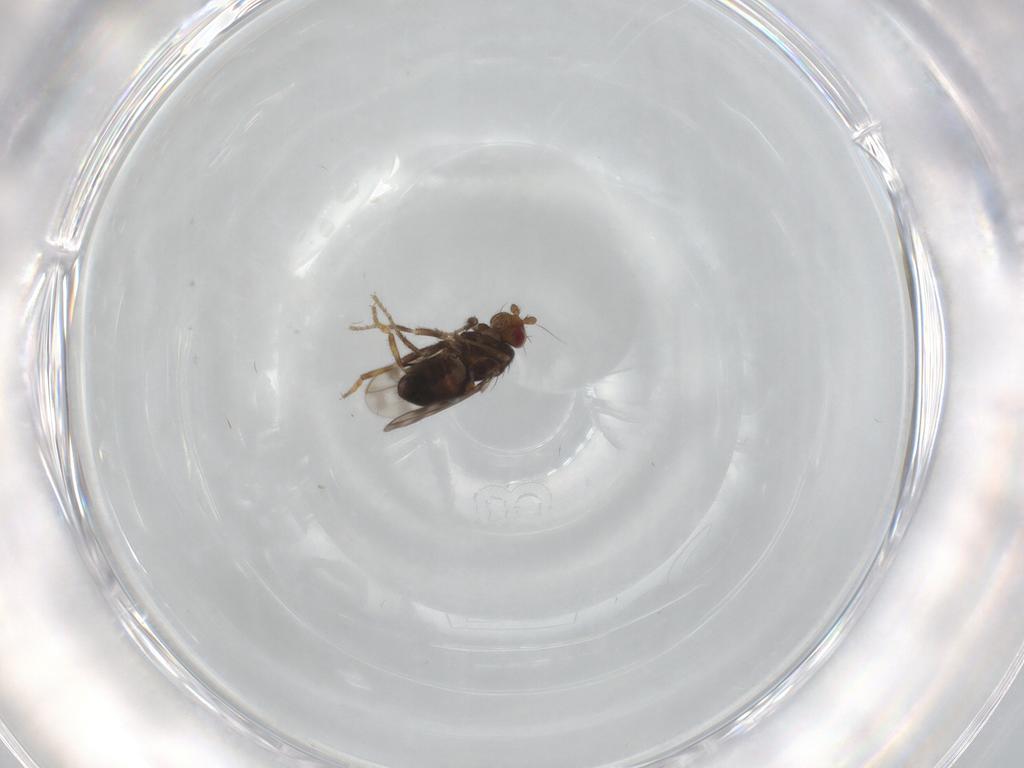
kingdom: Animalia
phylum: Arthropoda
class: Insecta
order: Diptera
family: Sphaeroceridae
